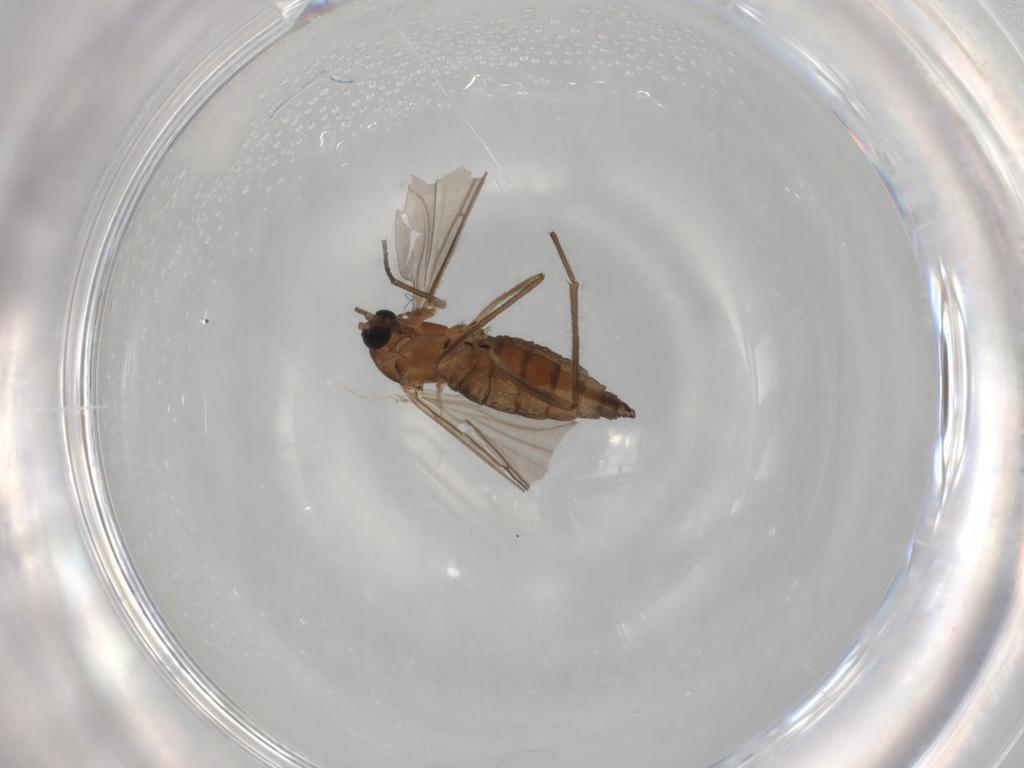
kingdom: Animalia
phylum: Arthropoda
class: Insecta
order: Diptera
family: Sciaridae
